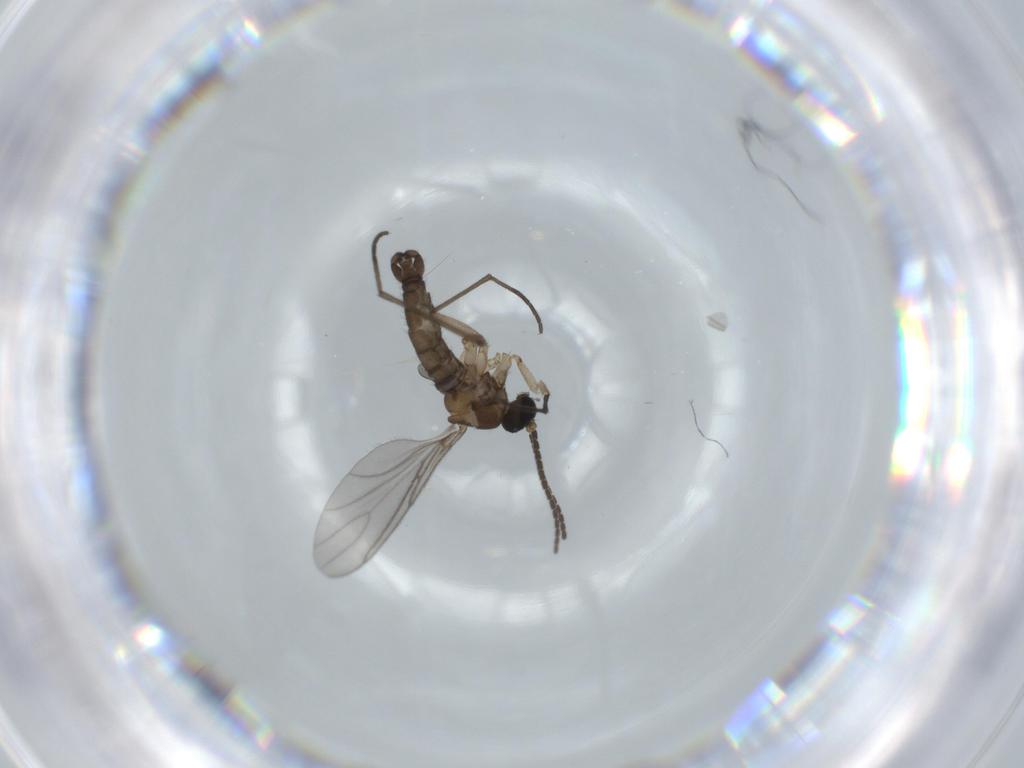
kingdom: Animalia
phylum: Arthropoda
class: Insecta
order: Diptera
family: Sciaridae
